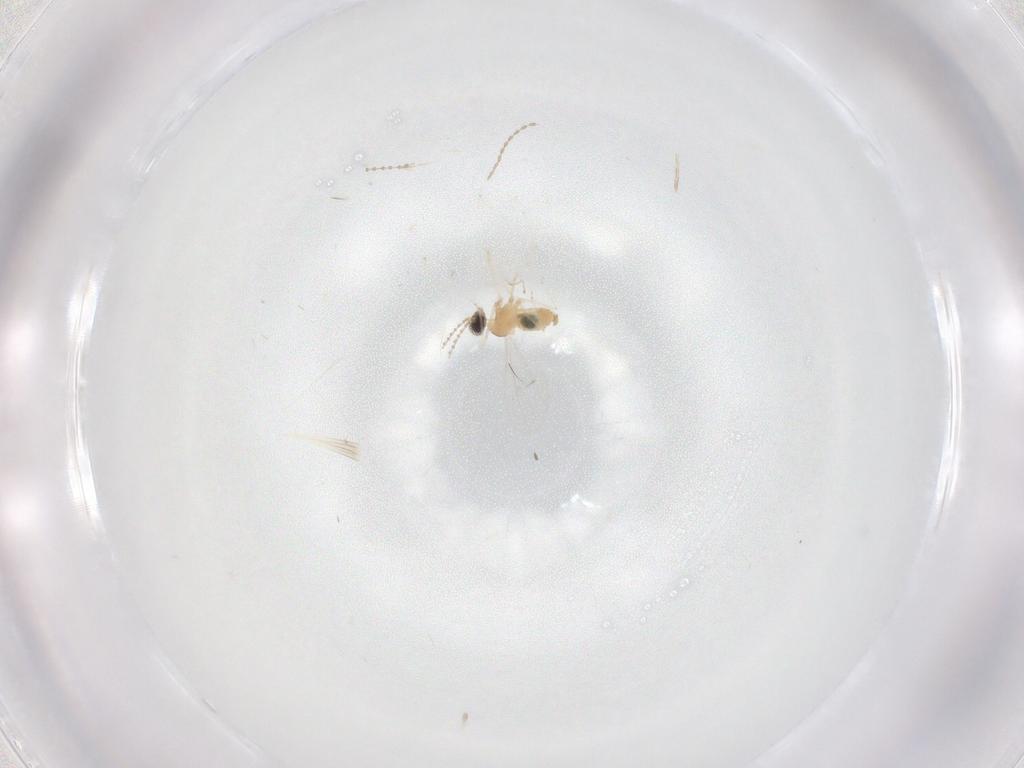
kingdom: Animalia
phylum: Arthropoda
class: Insecta
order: Diptera
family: Cecidomyiidae
